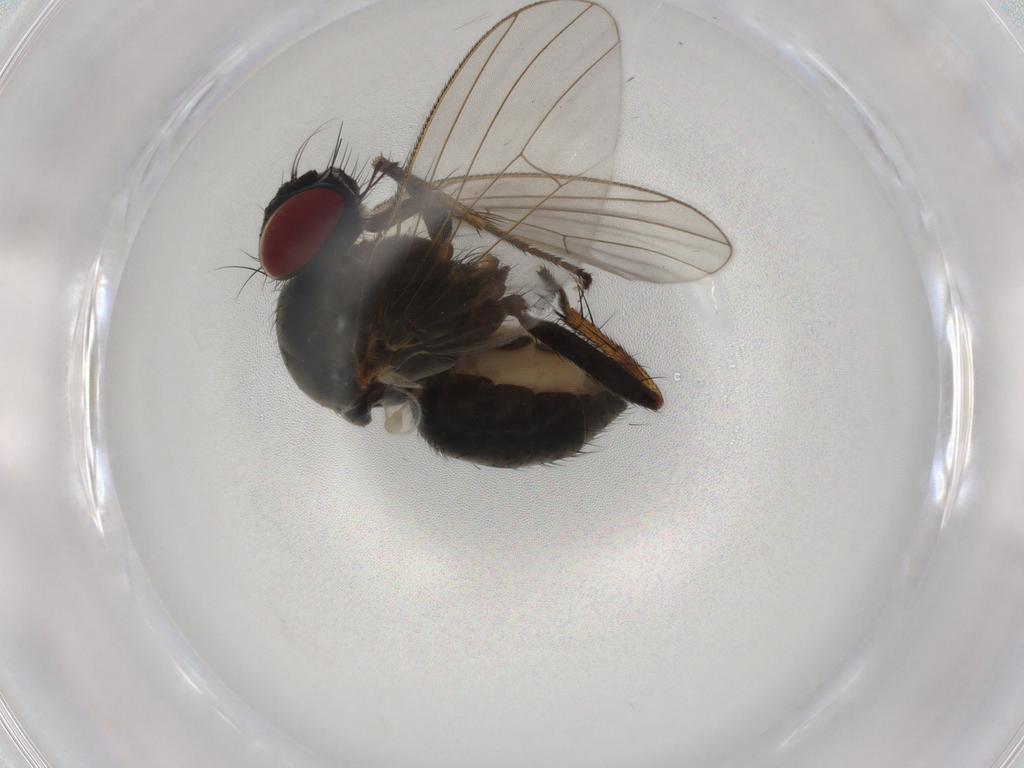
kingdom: Animalia
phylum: Arthropoda
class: Insecta
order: Diptera
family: Muscidae
